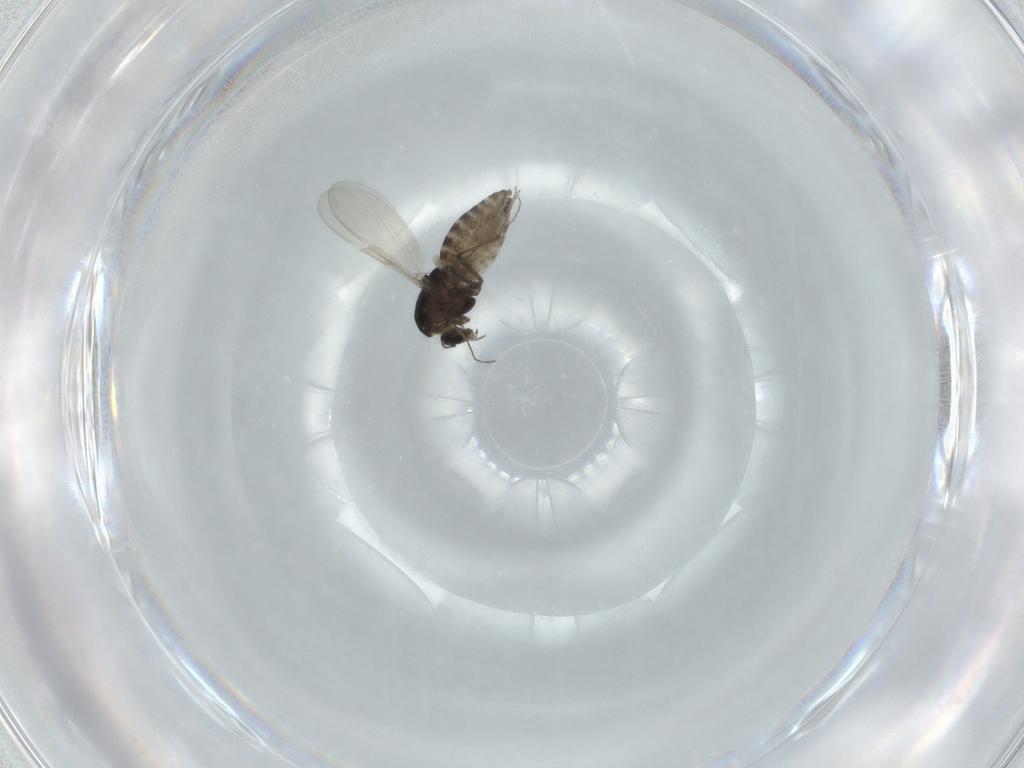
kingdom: Animalia
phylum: Arthropoda
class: Insecta
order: Diptera
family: Chironomidae
